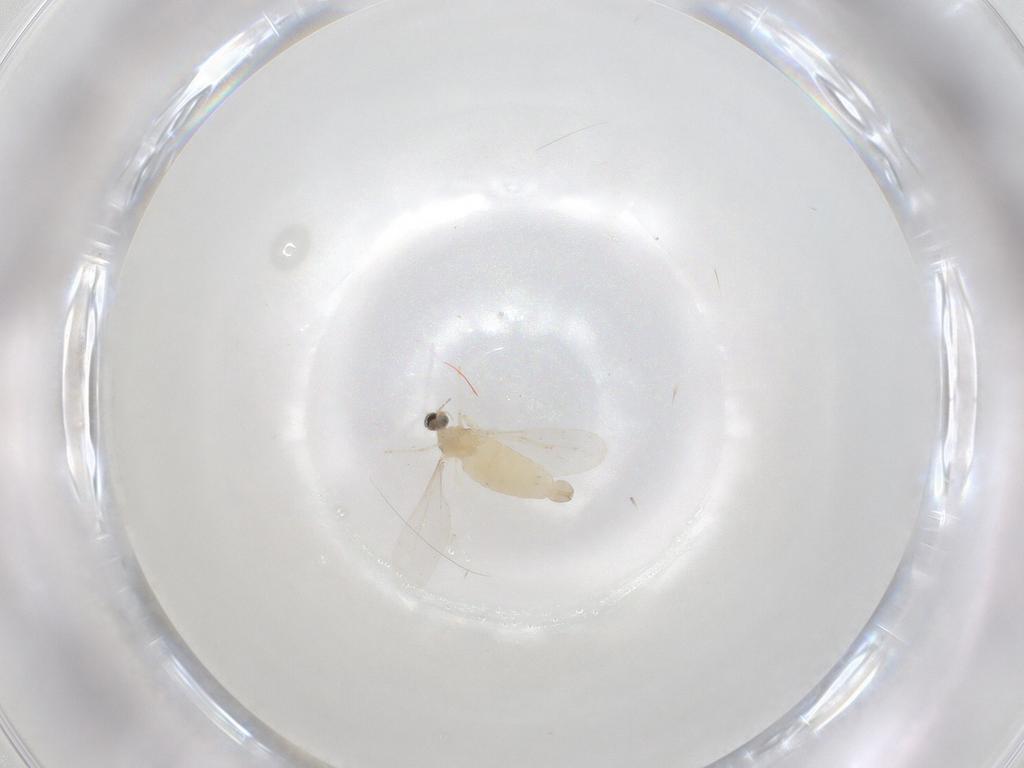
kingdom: Animalia
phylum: Arthropoda
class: Insecta
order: Diptera
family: Cecidomyiidae
